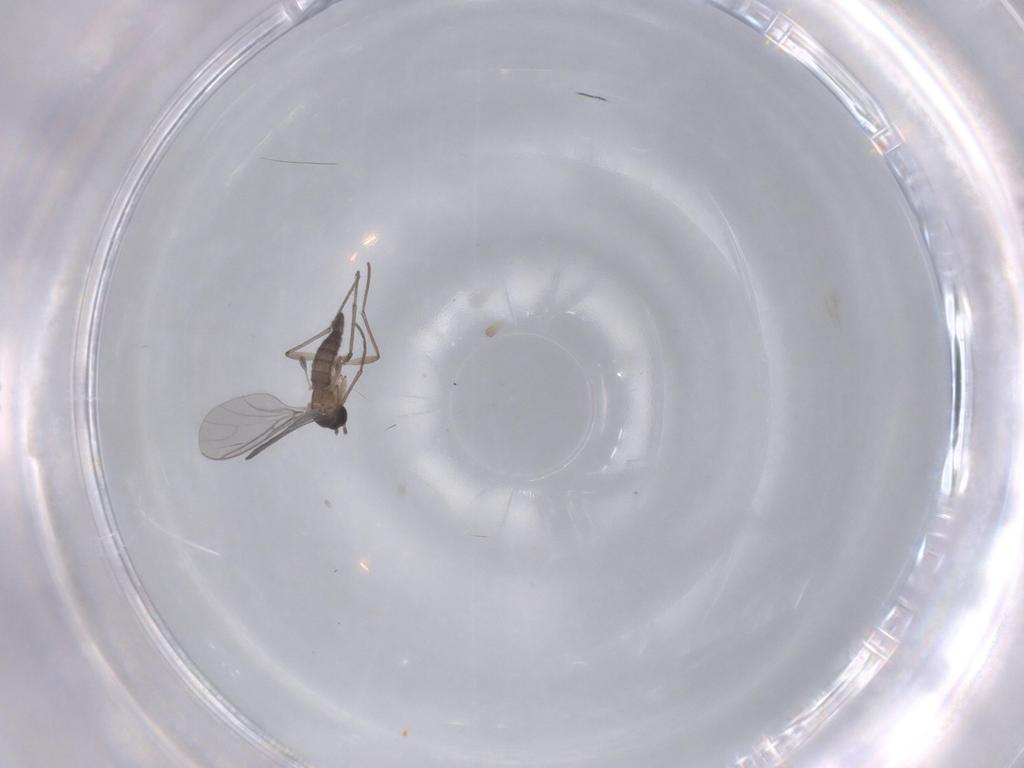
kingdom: Animalia
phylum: Arthropoda
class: Insecta
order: Diptera
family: Sciaridae
